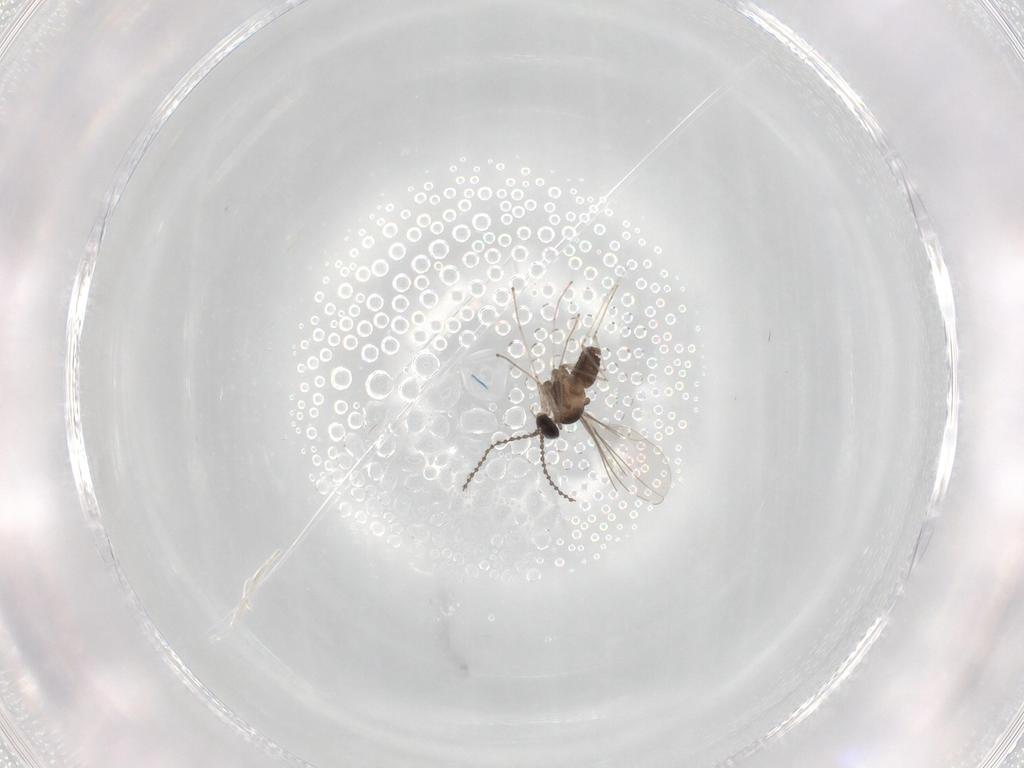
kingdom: Animalia
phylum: Arthropoda
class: Insecta
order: Diptera
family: Cecidomyiidae
